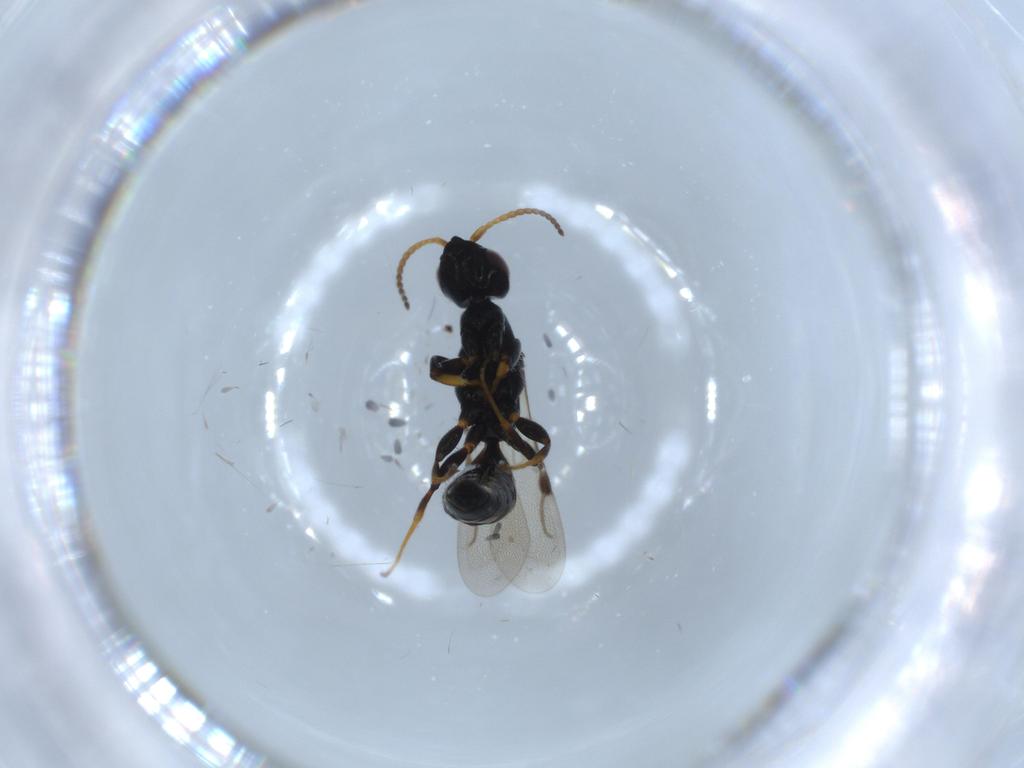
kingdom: Animalia
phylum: Arthropoda
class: Insecta
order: Hymenoptera
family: Bethylidae
